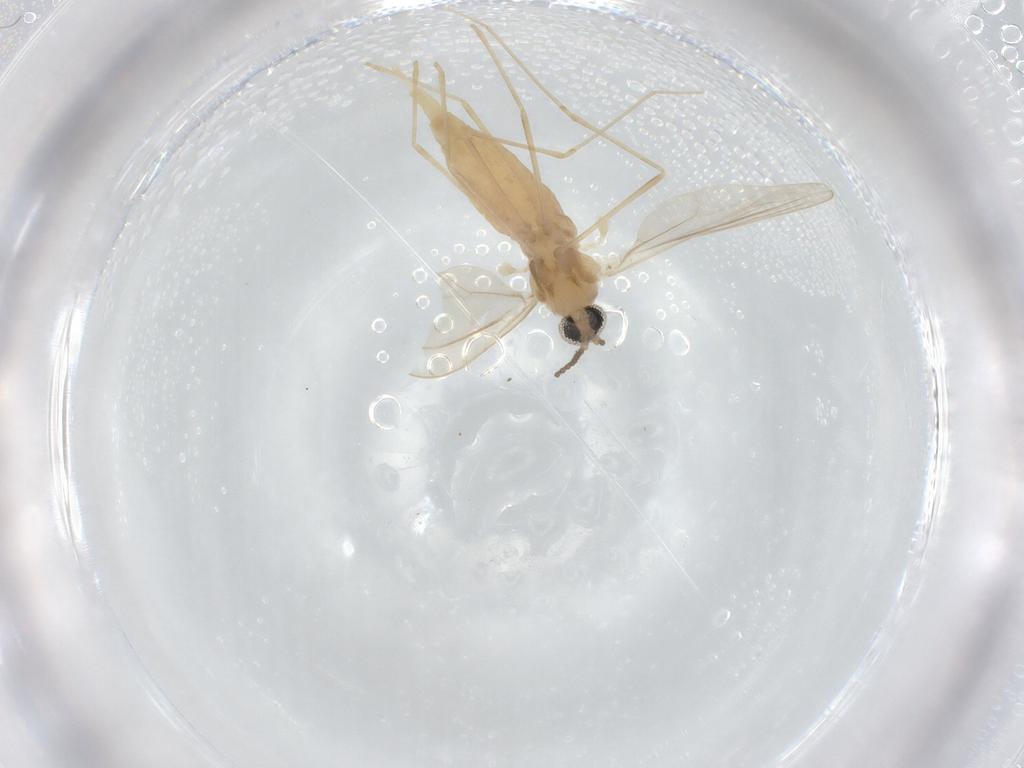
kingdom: Animalia
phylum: Arthropoda
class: Insecta
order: Diptera
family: Cecidomyiidae
